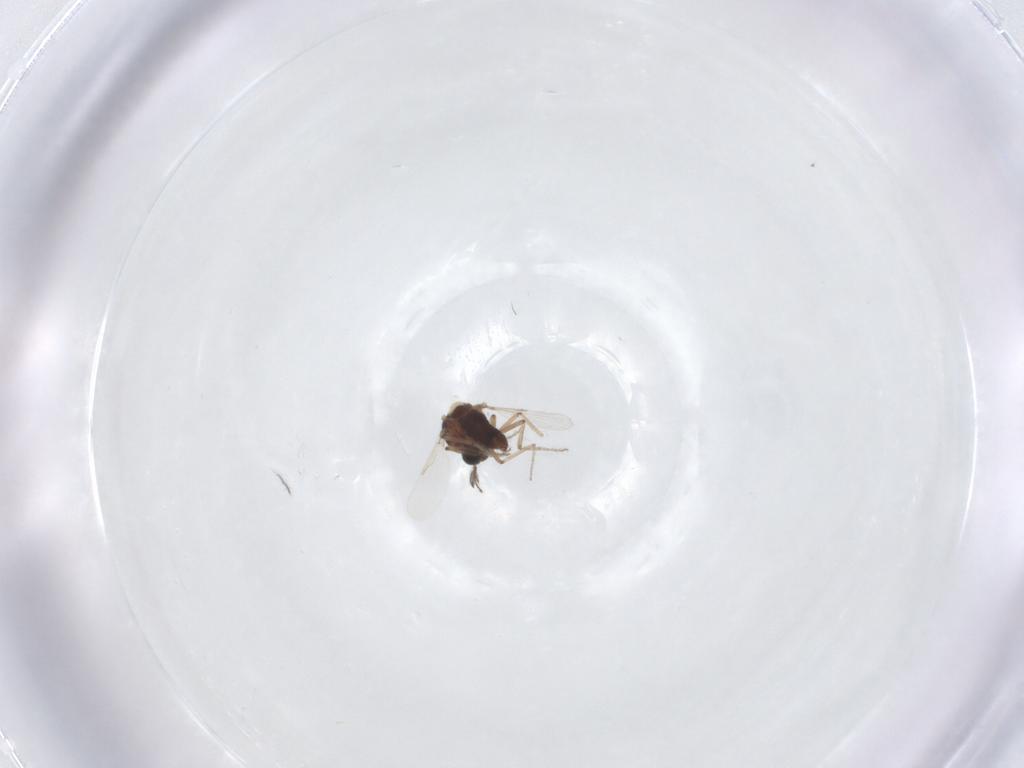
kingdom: Animalia
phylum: Arthropoda
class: Insecta
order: Diptera
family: Ceratopogonidae
